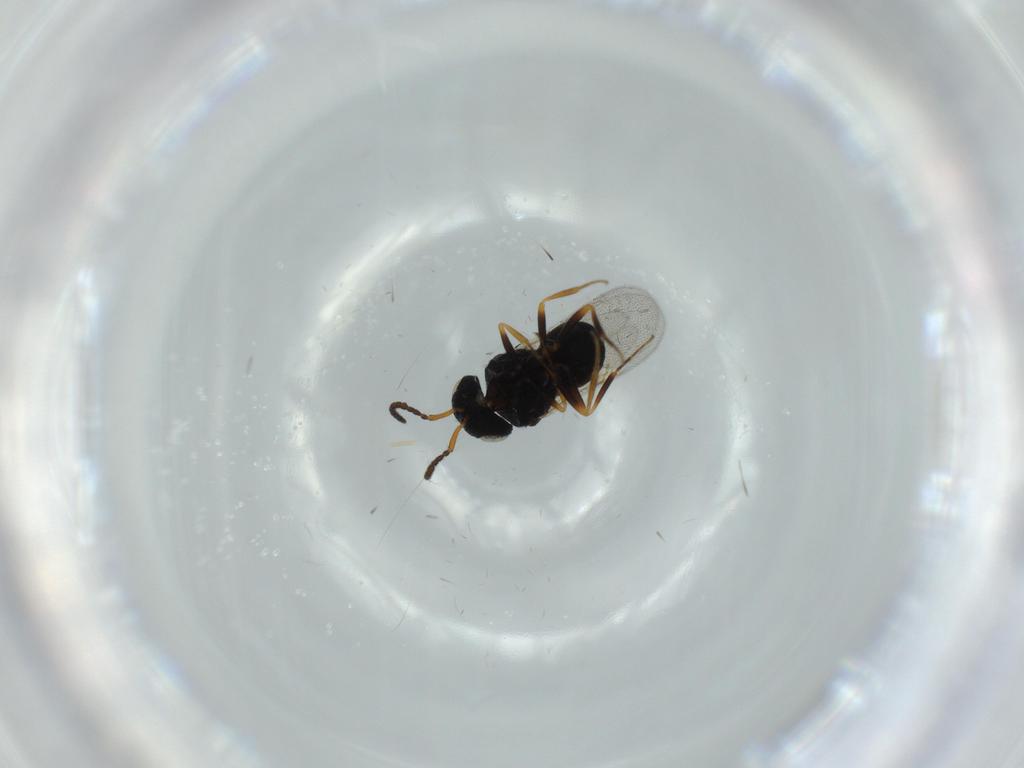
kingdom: Animalia
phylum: Arthropoda
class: Insecta
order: Hymenoptera
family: Scelionidae
